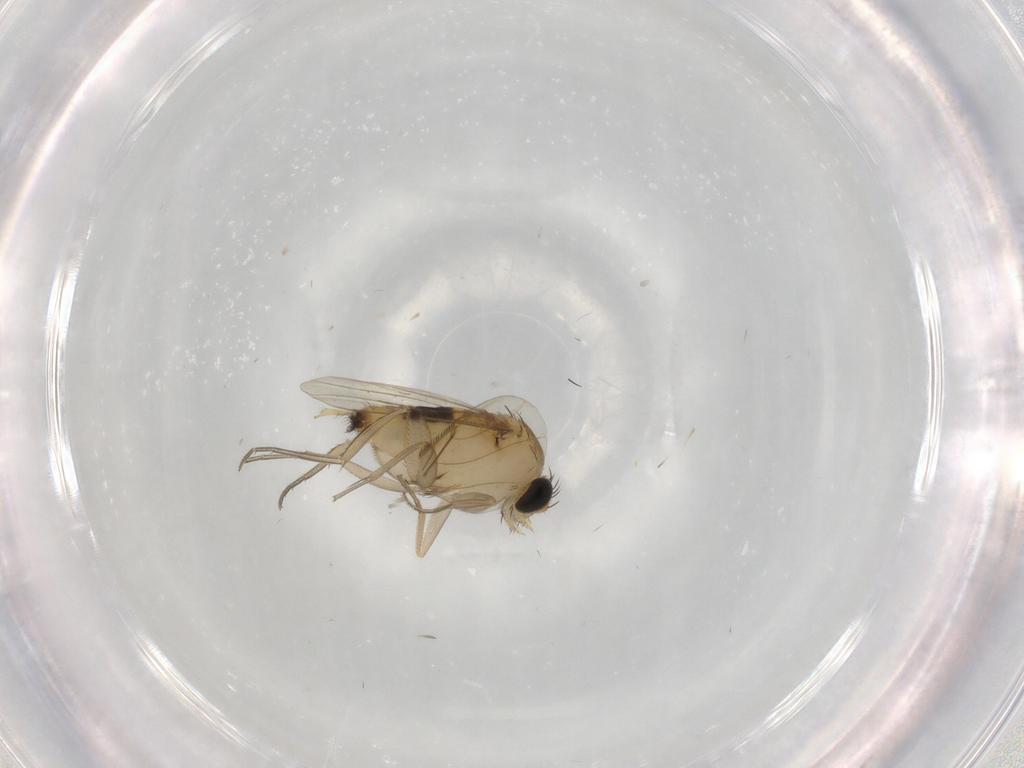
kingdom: Animalia
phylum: Arthropoda
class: Insecta
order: Diptera
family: Phoridae
